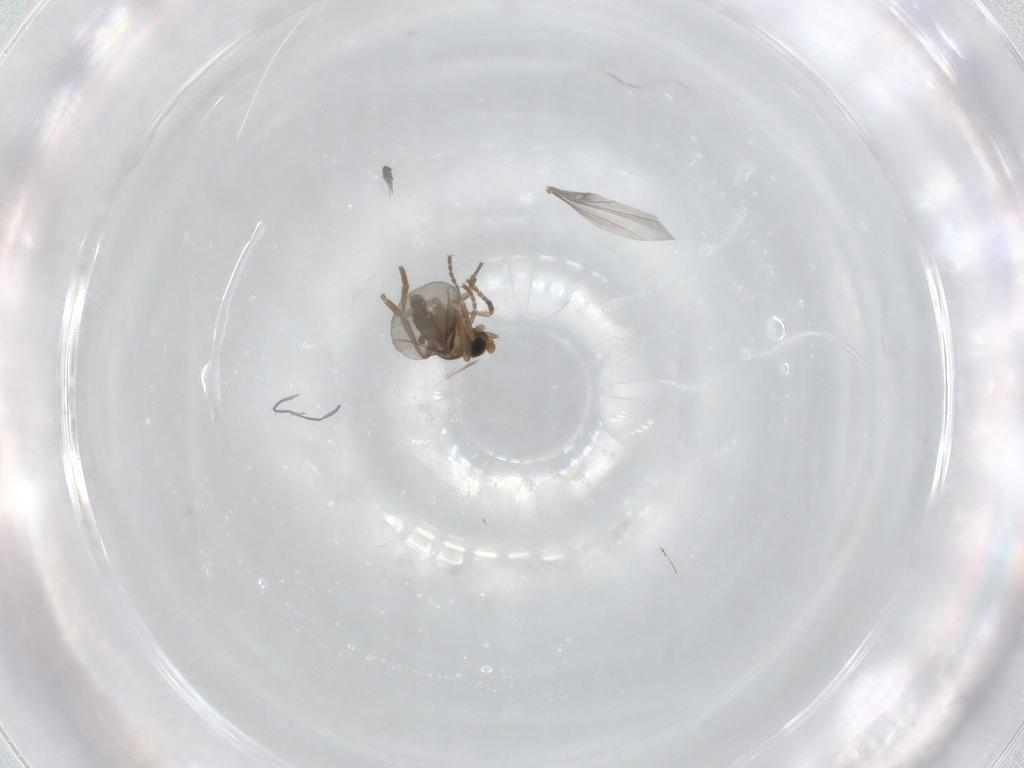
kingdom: Animalia
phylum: Arthropoda
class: Insecta
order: Diptera
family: Phoridae
